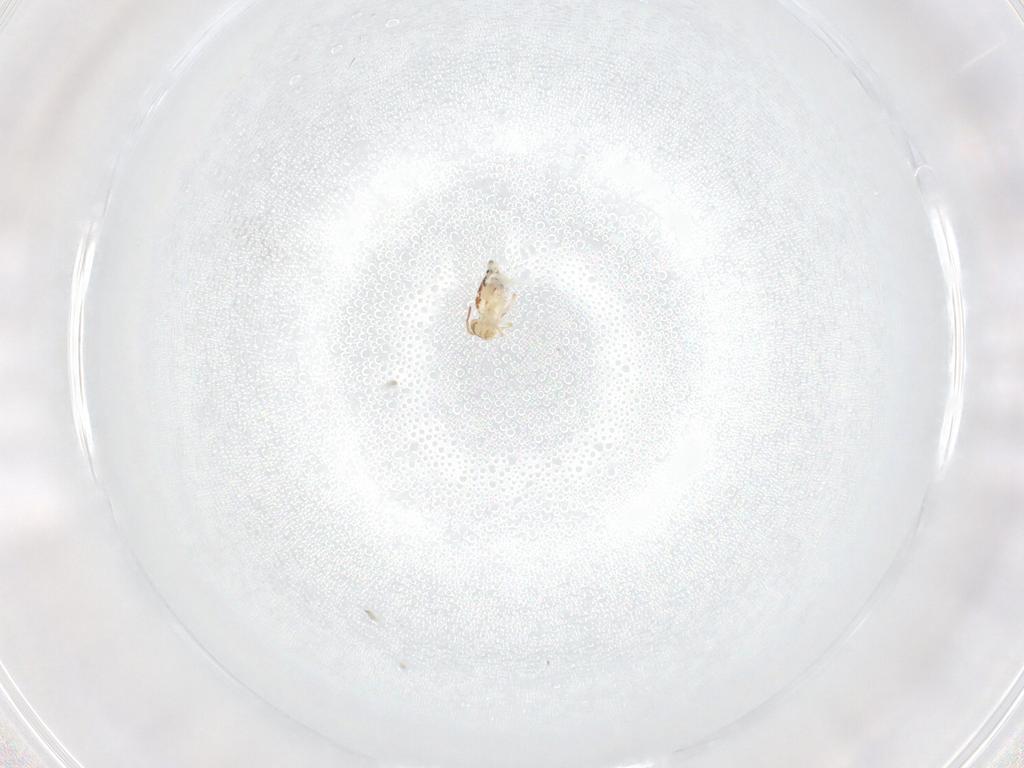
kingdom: Animalia
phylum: Arthropoda
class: Collembola
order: Symphypleona
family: Bourletiellidae
